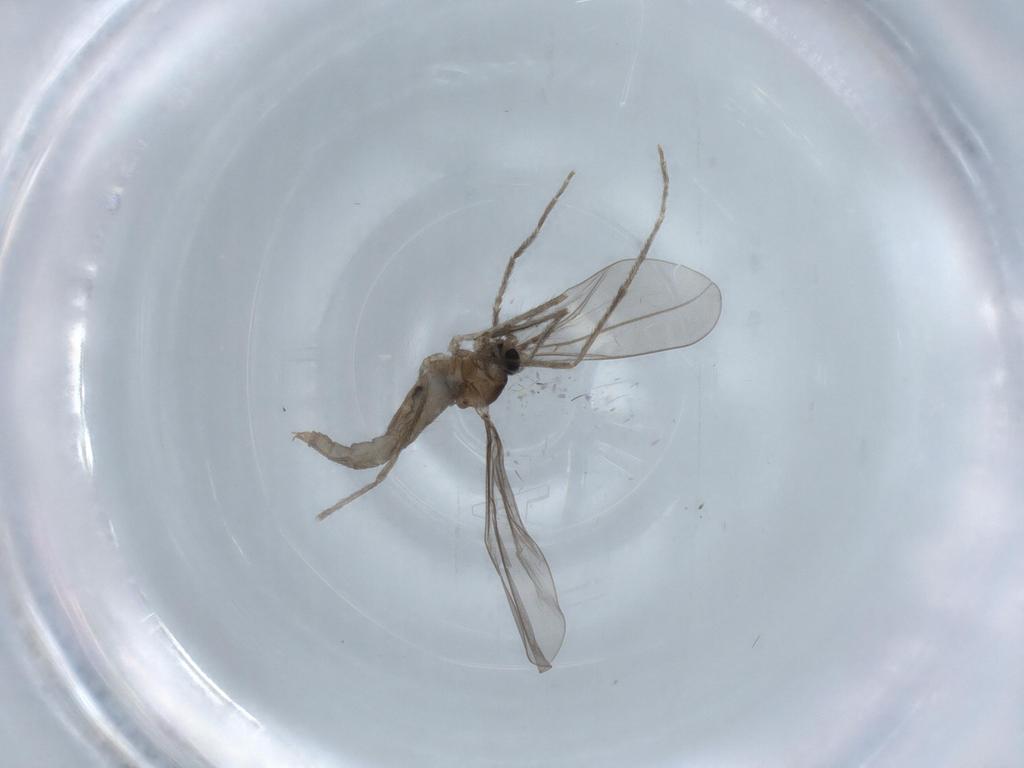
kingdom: Animalia
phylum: Arthropoda
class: Insecta
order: Diptera
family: Cecidomyiidae
